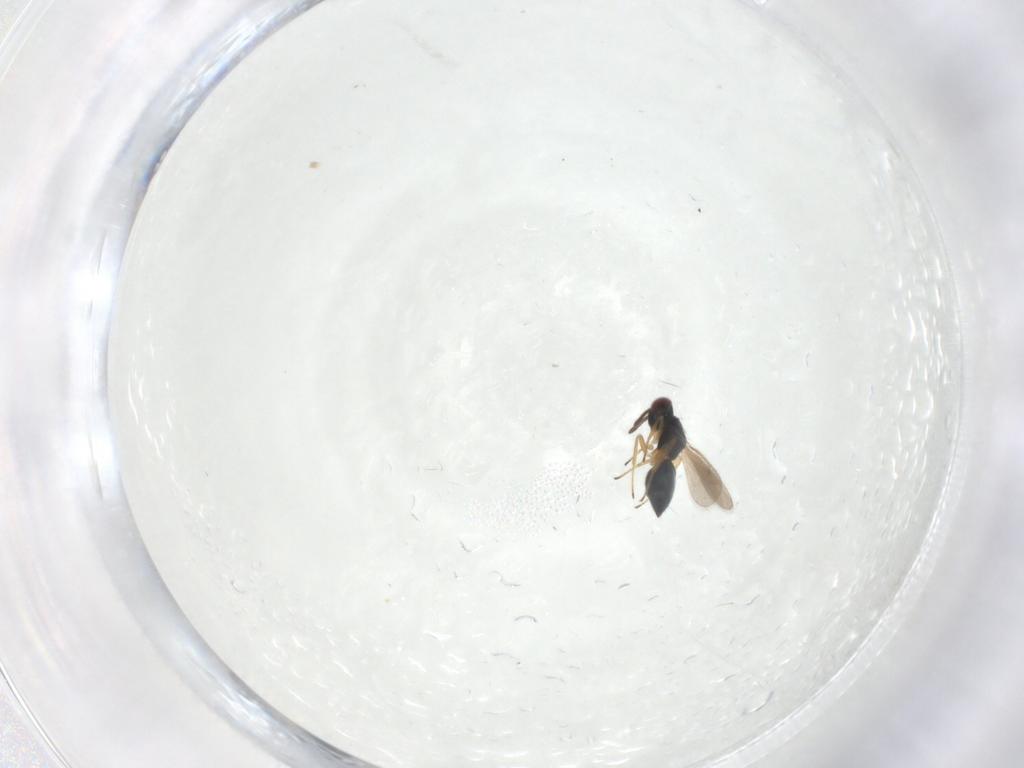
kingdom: Animalia
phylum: Arthropoda
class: Insecta
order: Hymenoptera
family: Tetracampidae
